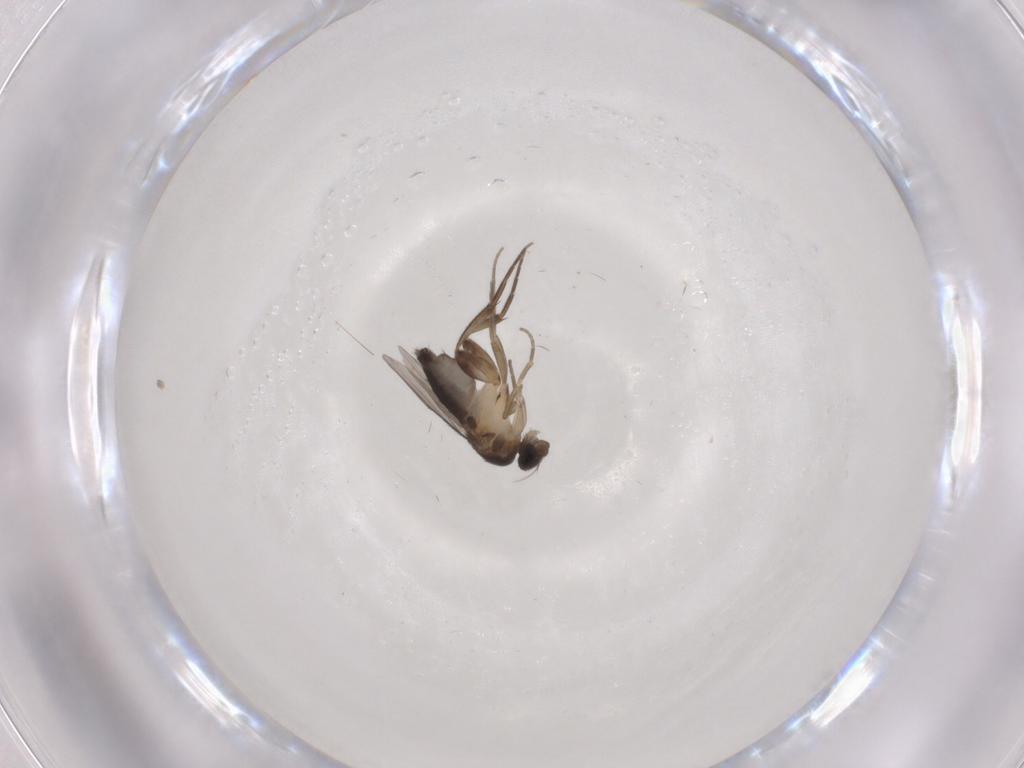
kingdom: Animalia
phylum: Arthropoda
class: Insecta
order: Diptera
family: Phoridae
